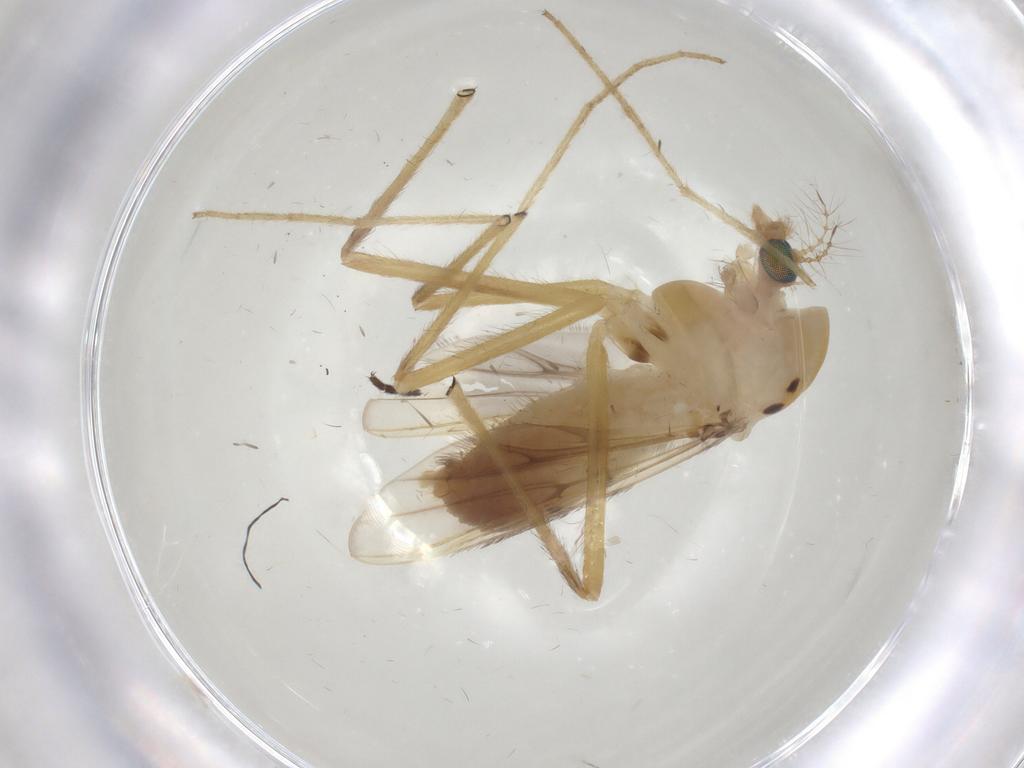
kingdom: Animalia
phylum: Arthropoda
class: Insecta
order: Diptera
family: Chironomidae
